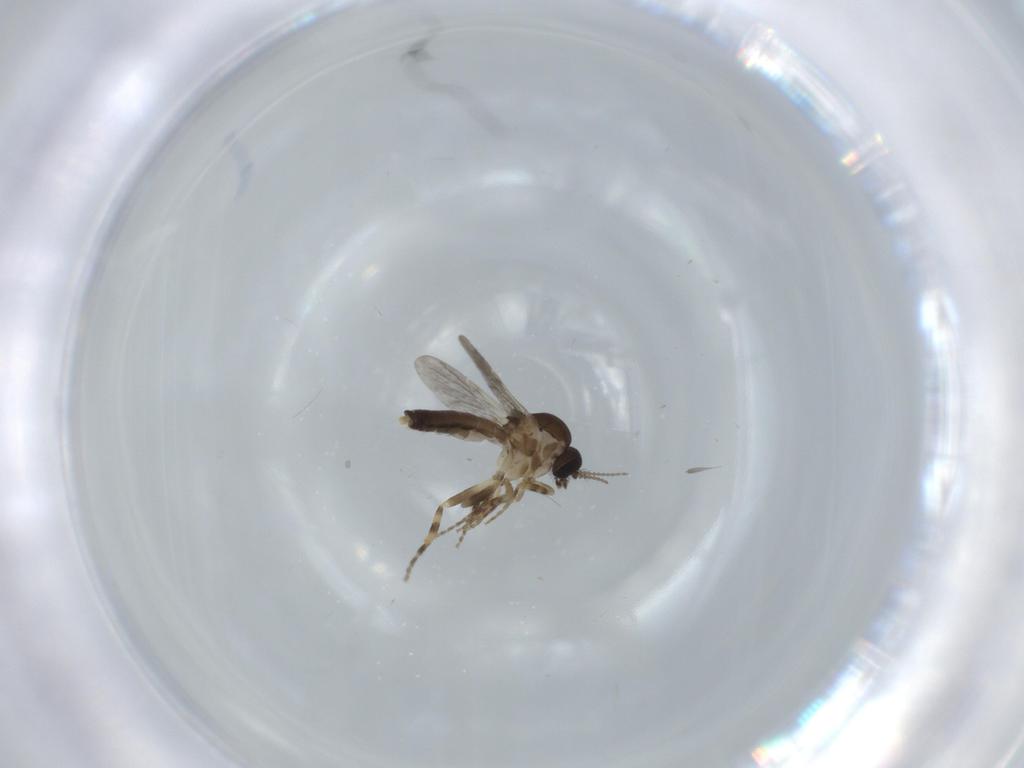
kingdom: Animalia
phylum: Arthropoda
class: Insecta
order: Diptera
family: Ceratopogonidae
